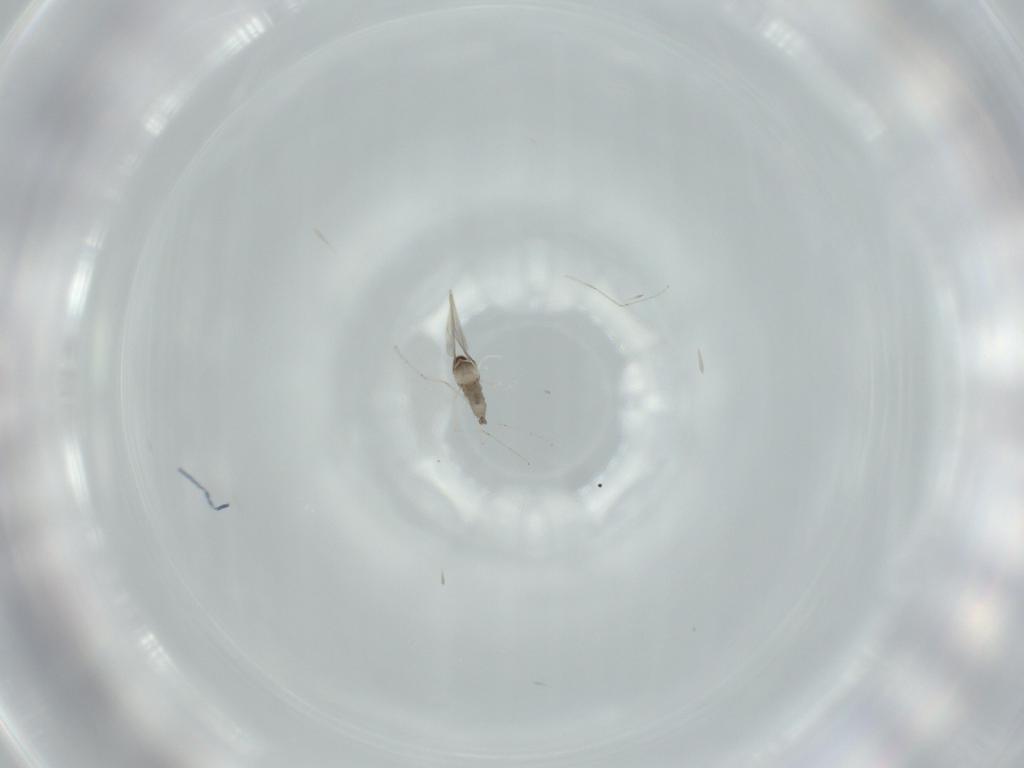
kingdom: Animalia
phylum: Arthropoda
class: Insecta
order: Diptera
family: Cecidomyiidae
